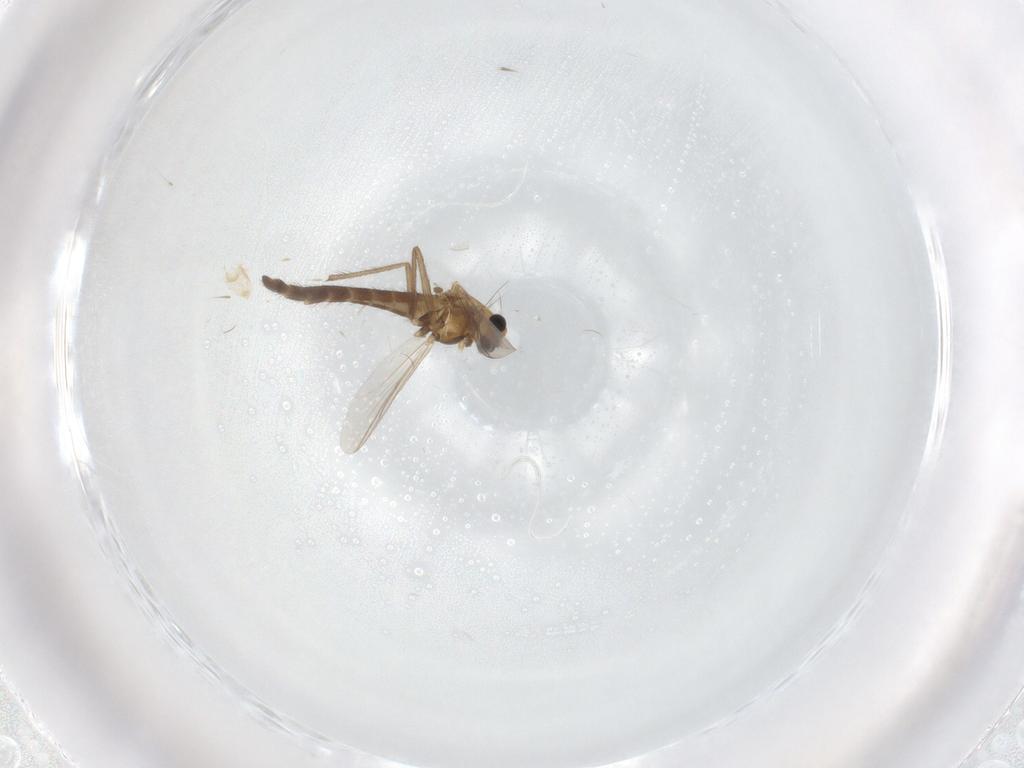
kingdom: Animalia
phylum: Arthropoda
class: Insecta
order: Diptera
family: Chironomidae
